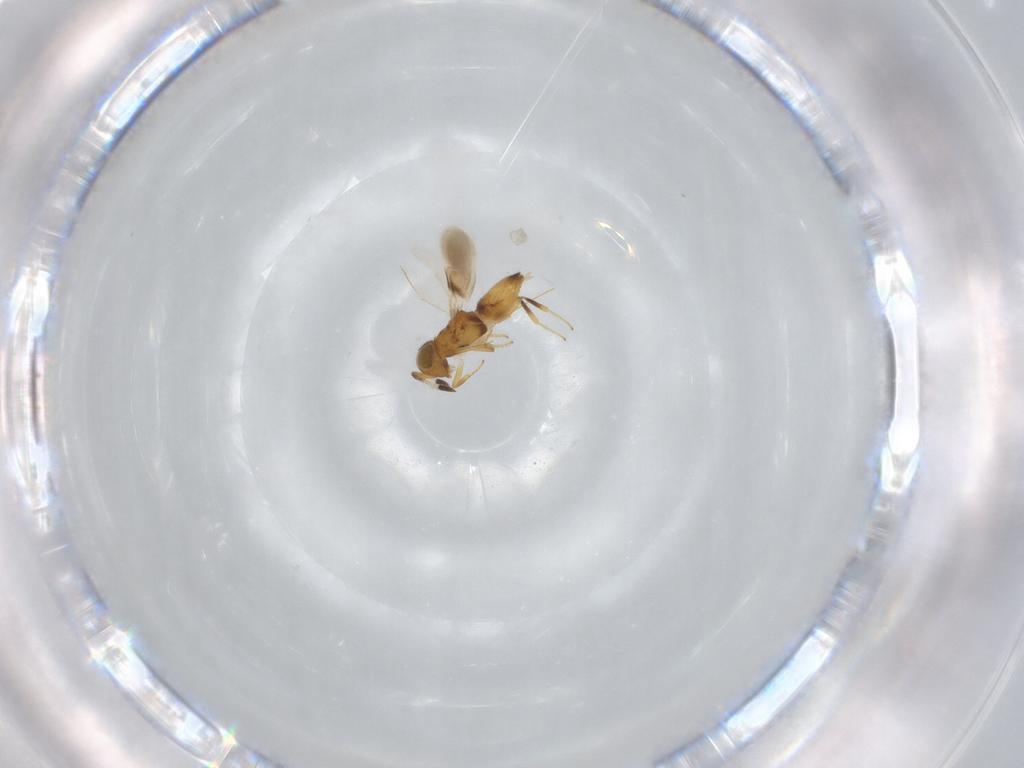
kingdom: Animalia
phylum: Arthropoda
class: Insecta
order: Hymenoptera
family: Encyrtidae
